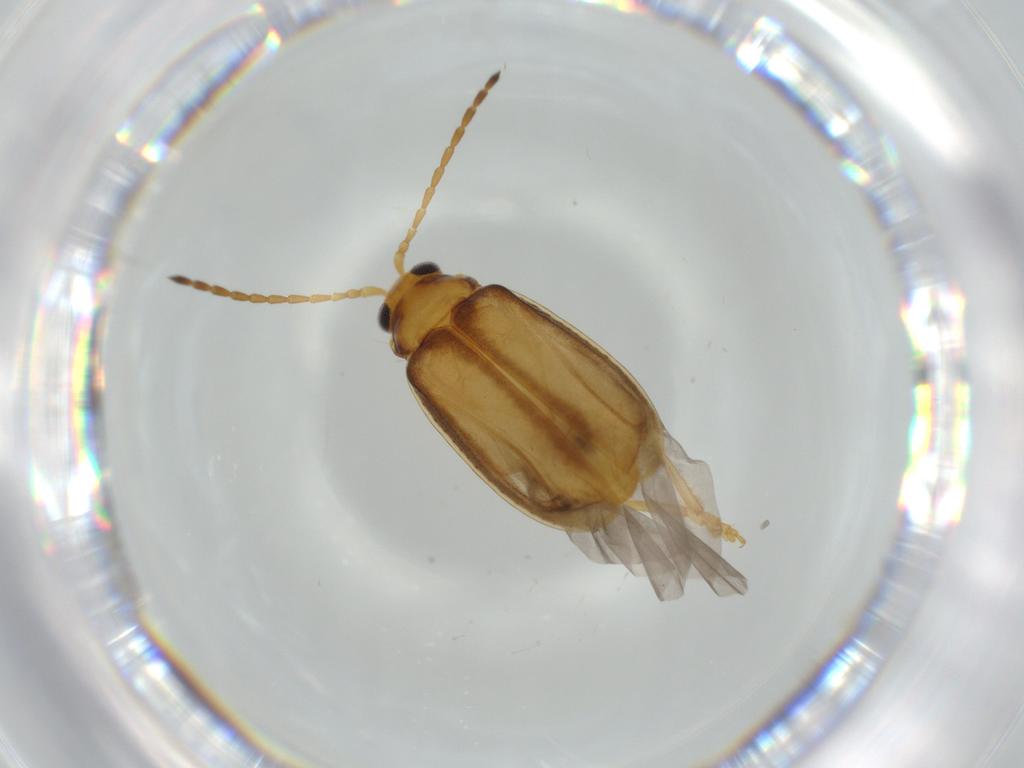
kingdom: Animalia
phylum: Arthropoda
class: Insecta
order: Coleoptera
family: Chrysomelidae
